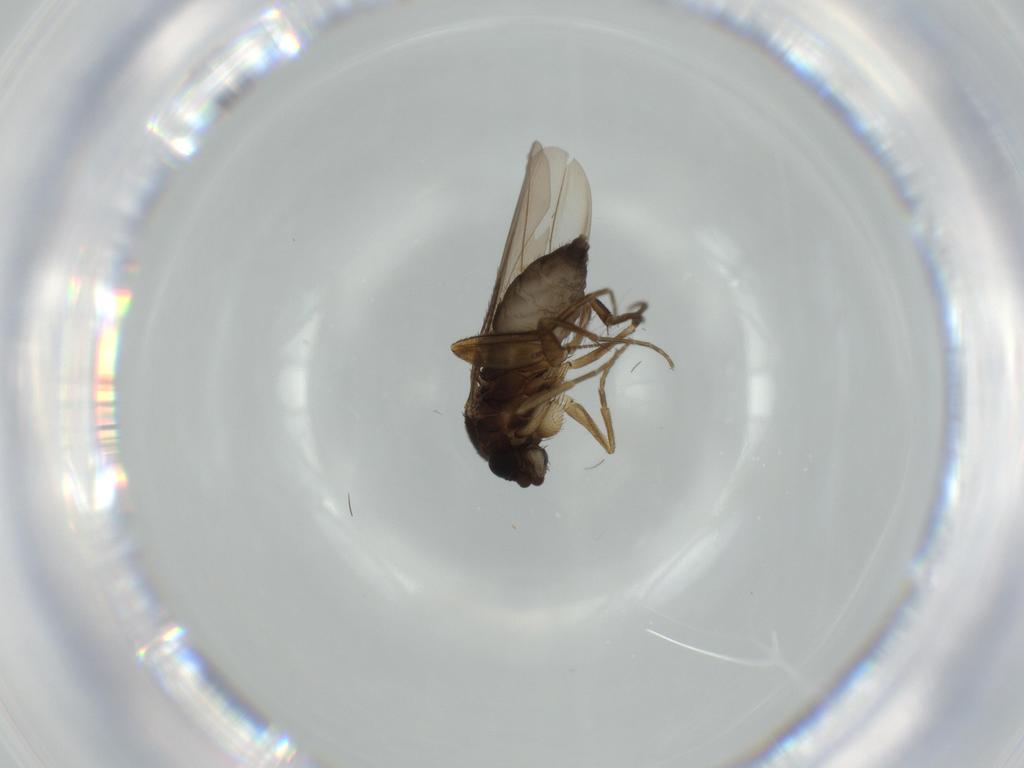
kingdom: Animalia
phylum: Arthropoda
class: Insecta
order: Diptera
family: Phoridae
